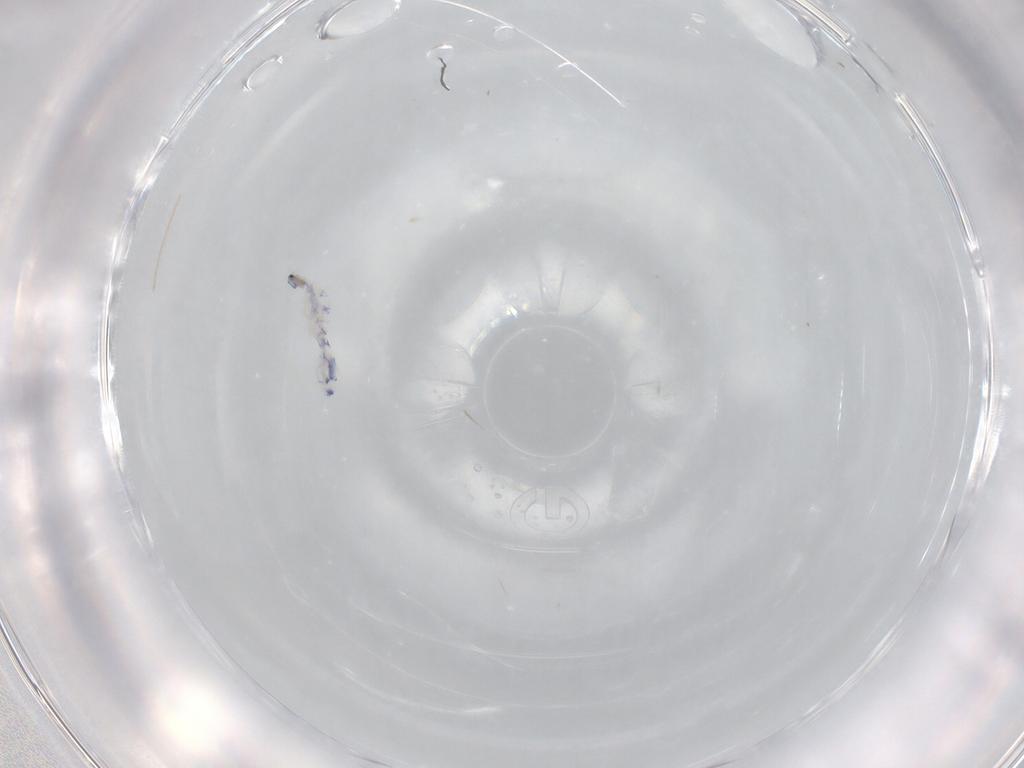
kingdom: Animalia
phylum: Arthropoda
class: Collembola
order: Entomobryomorpha
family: Entomobryidae
